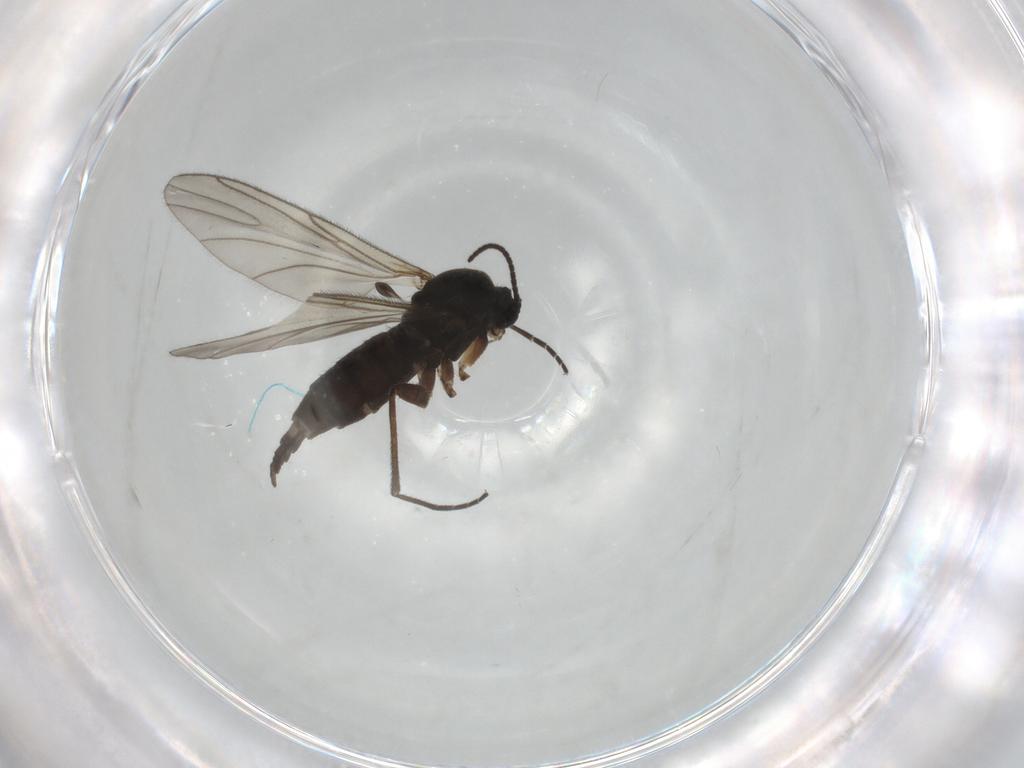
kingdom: Animalia
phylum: Arthropoda
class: Insecta
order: Diptera
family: Sciaridae
